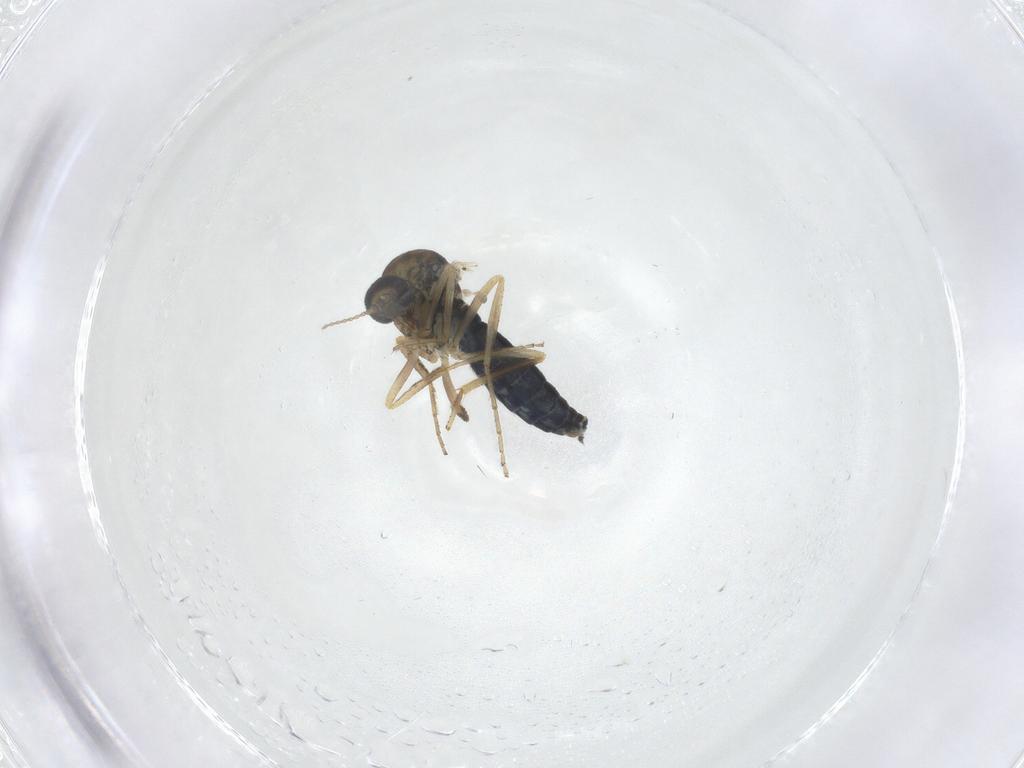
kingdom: Animalia
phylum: Arthropoda
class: Insecta
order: Diptera
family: Ceratopogonidae
